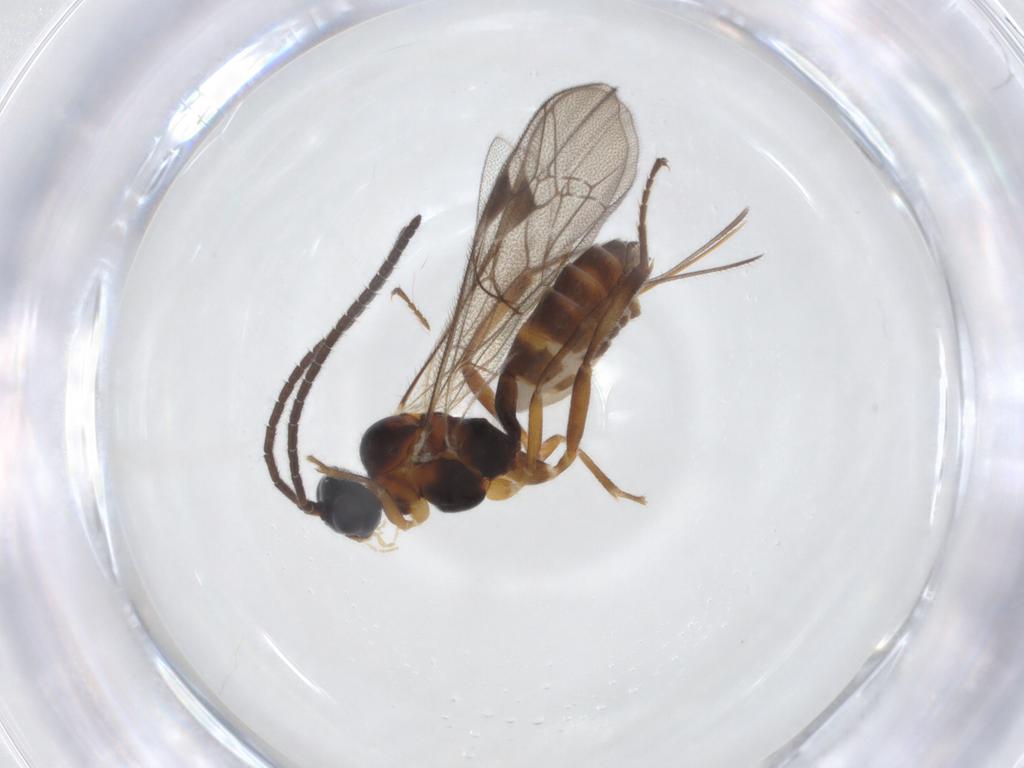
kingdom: Animalia
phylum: Arthropoda
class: Insecta
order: Hymenoptera
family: Ichneumonidae
